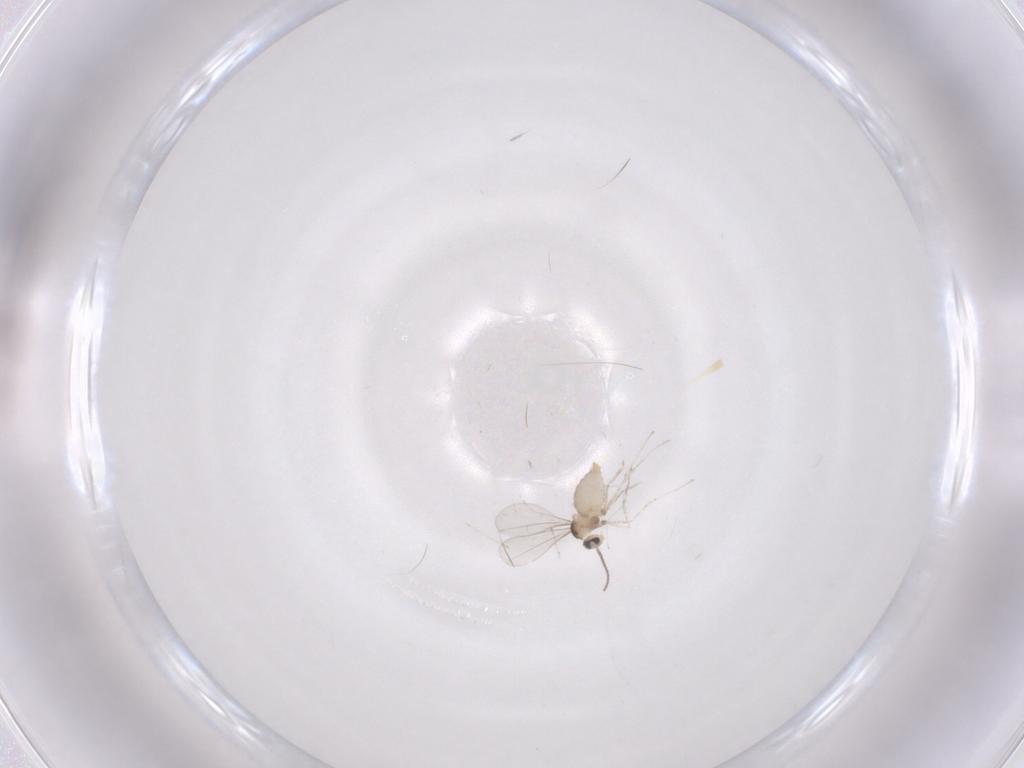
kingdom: Animalia
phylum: Arthropoda
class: Insecta
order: Diptera
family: Cecidomyiidae
